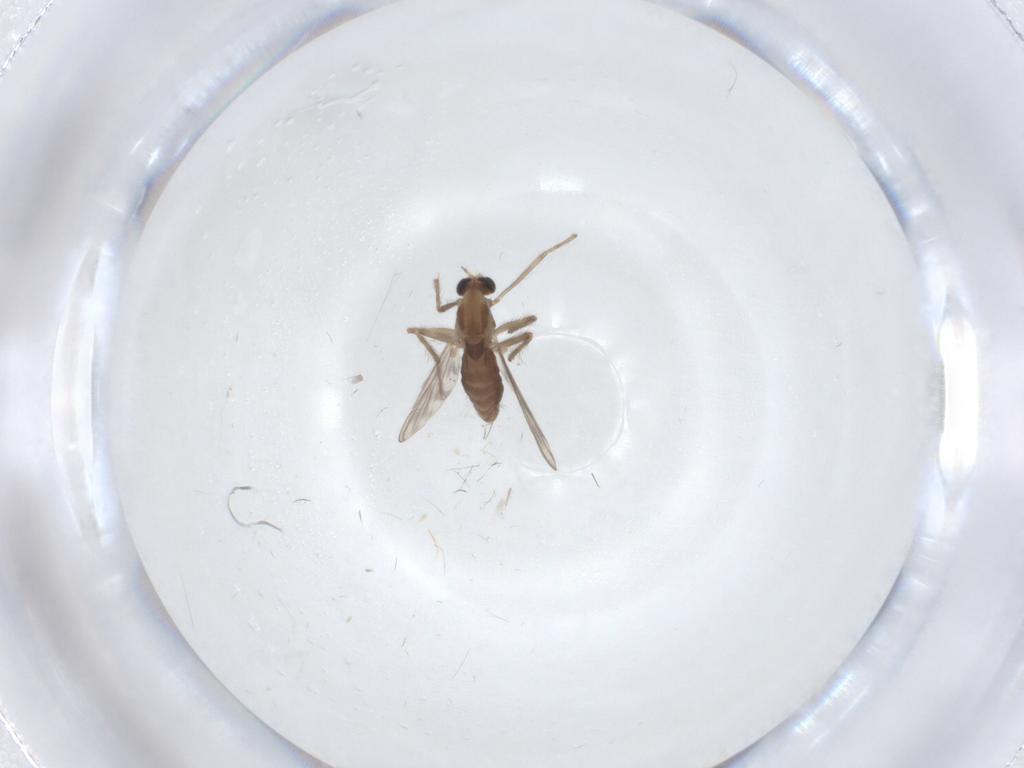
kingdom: Animalia
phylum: Arthropoda
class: Insecta
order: Diptera
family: Chironomidae
